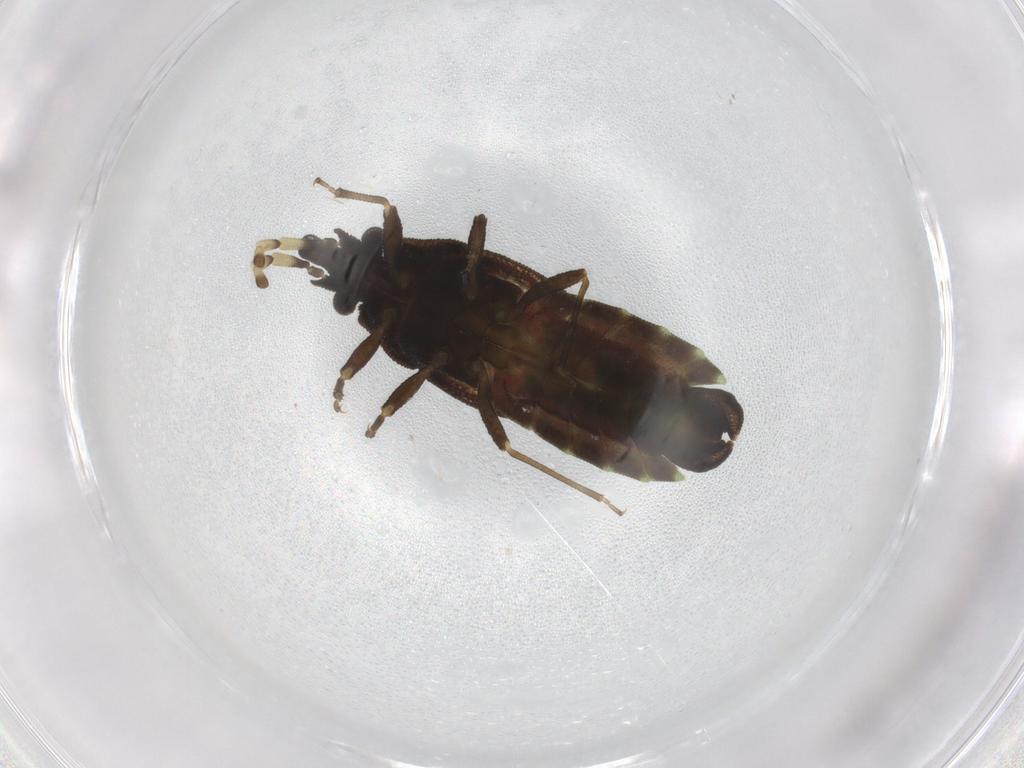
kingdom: Animalia
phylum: Arthropoda
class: Insecta
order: Hemiptera
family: Aradidae
